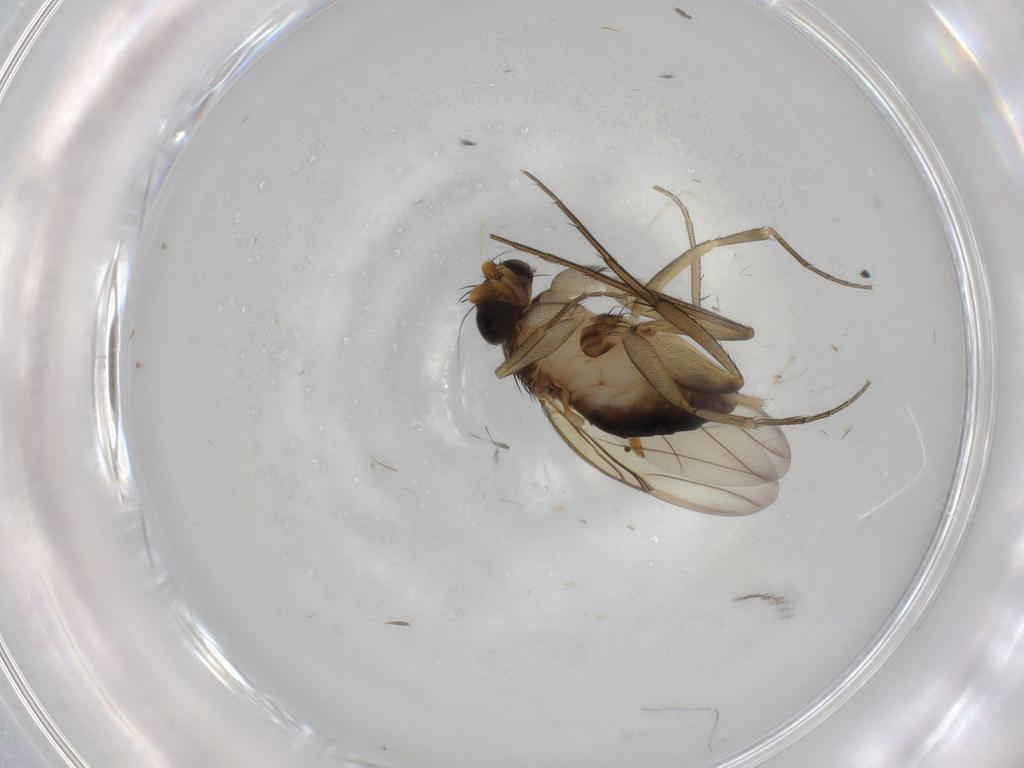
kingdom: Animalia
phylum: Arthropoda
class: Insecta
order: Diptera
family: Phoridae
